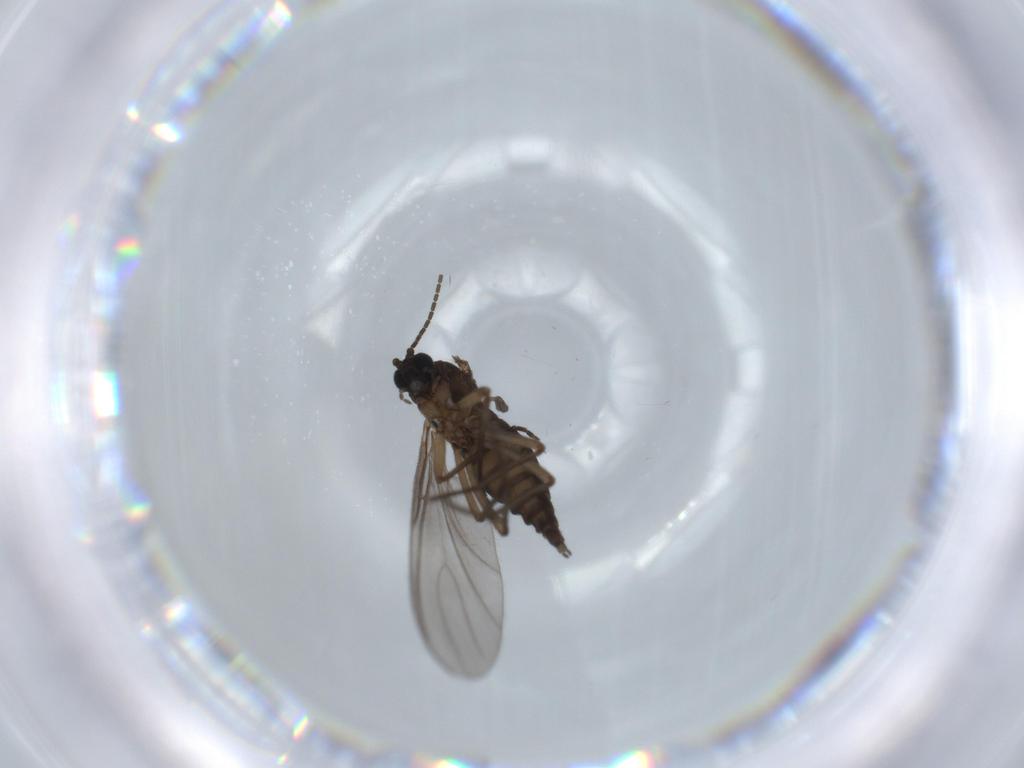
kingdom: Animalia
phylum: Arthropoda
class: Insecta
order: Diptera
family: Sciaridae
